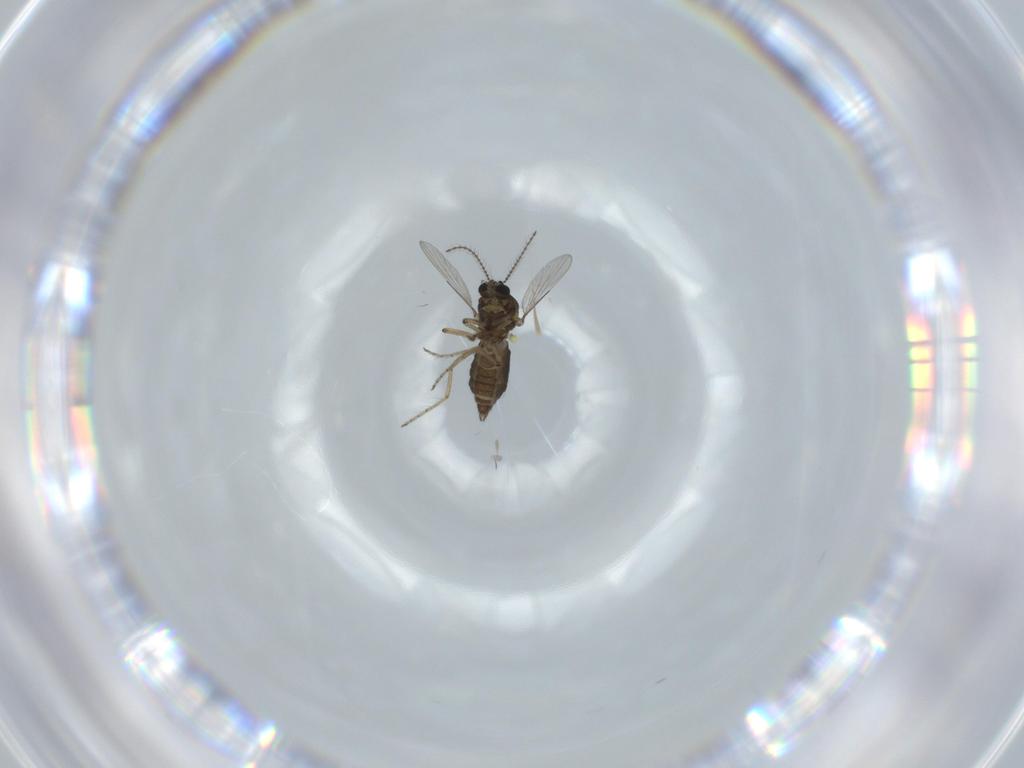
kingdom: Animalia
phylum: Arthropoda
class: Insecta
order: Diptera
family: Ceratopogonidae
